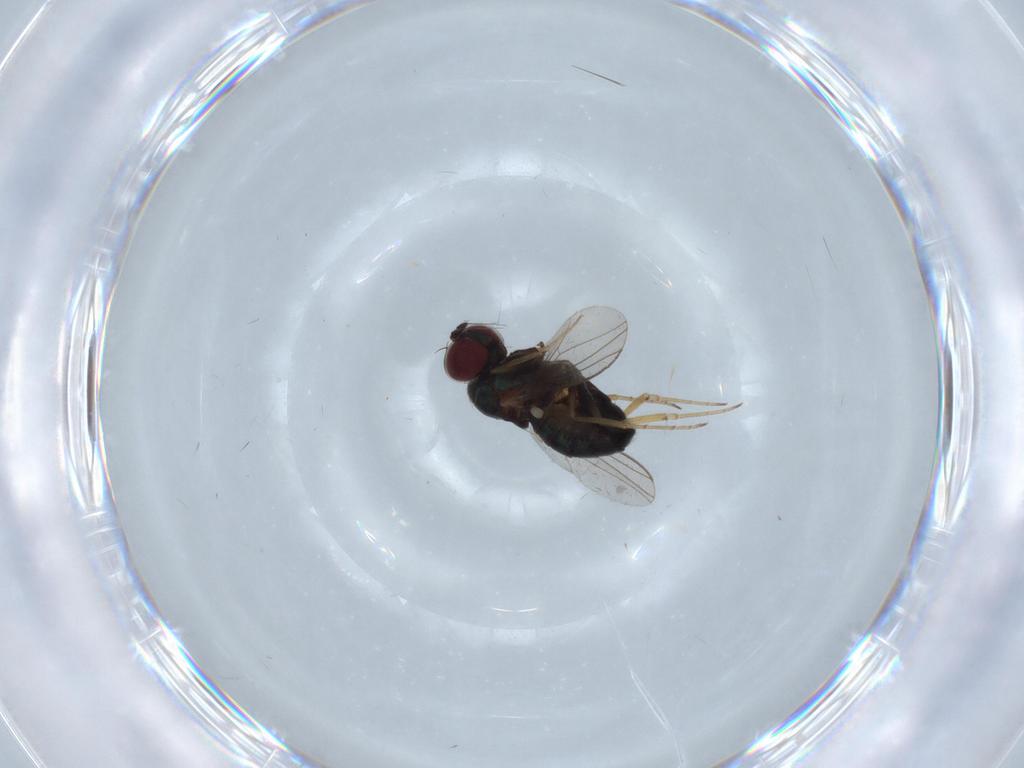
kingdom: Animalia
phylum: Arthropoda
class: Insecta
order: Diptera
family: Dolichopodidae
